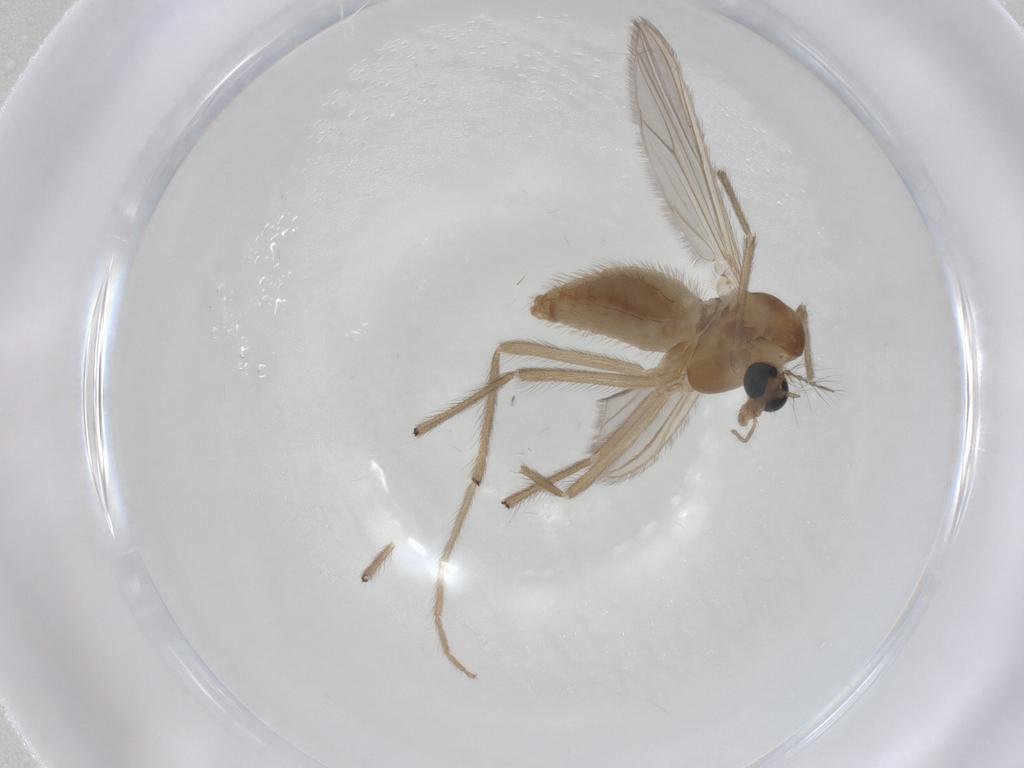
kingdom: Animalia
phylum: Arthropoda
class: Insecta
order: Diptera
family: Chironomidae
